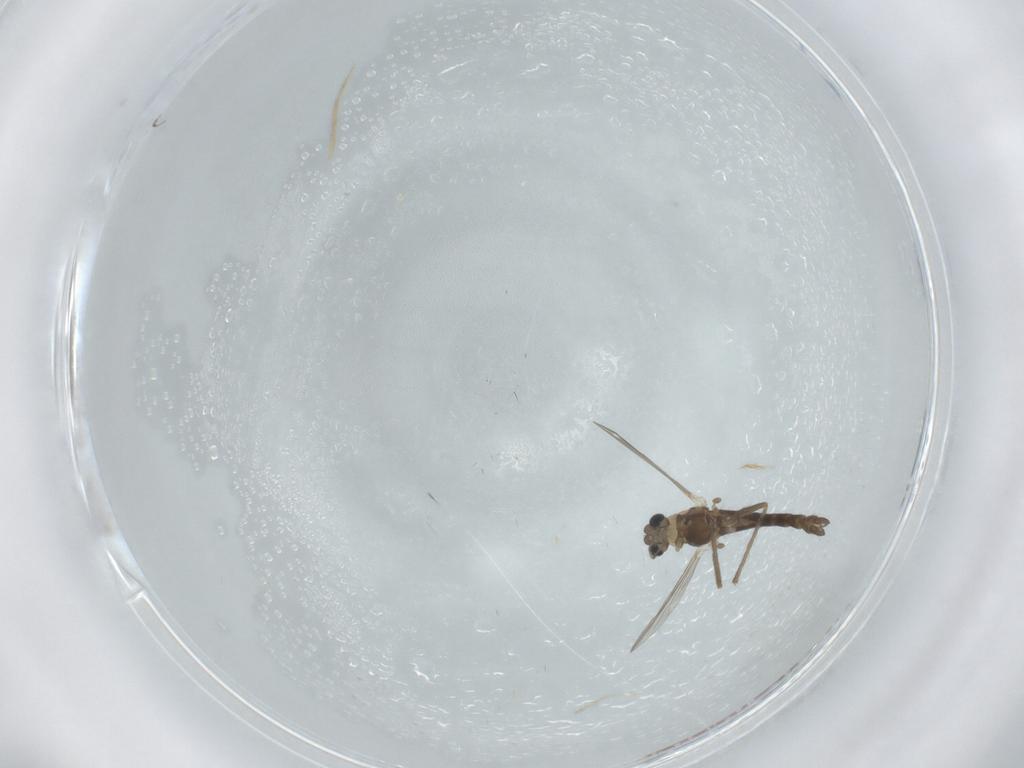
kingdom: Animalia
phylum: Arthropoda
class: Insecta
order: Diptera
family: Chironomidae
